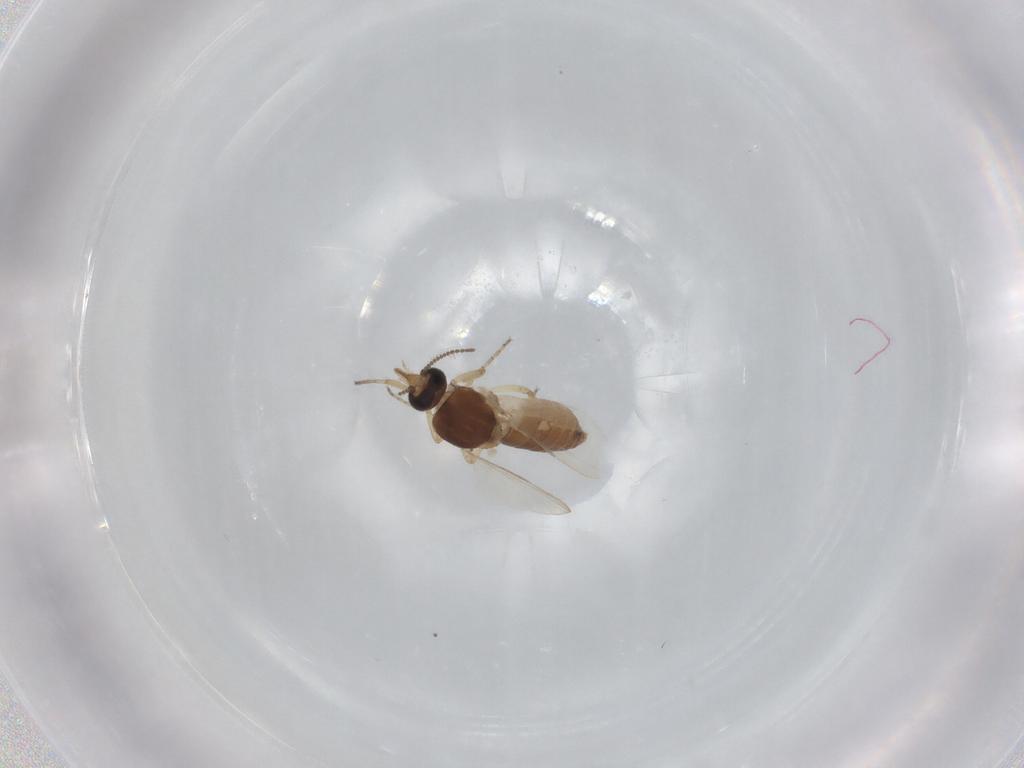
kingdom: Animalia
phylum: Arthropoda
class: Insecta
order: Diptera
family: Ceratopogonidae
